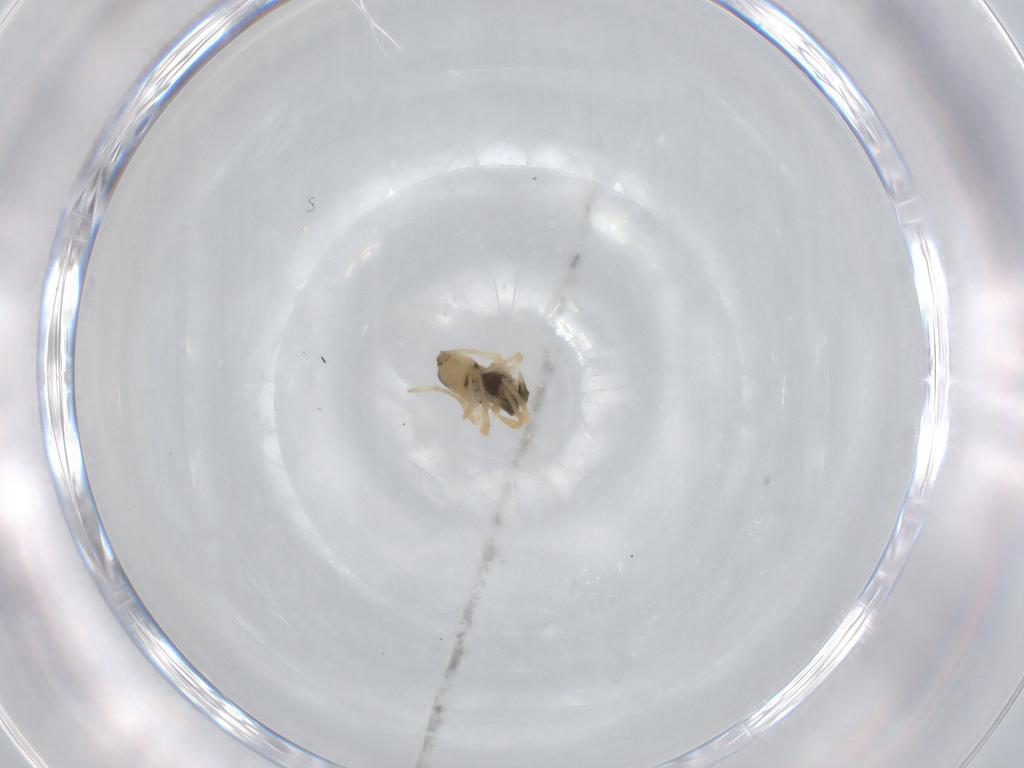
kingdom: Animalia
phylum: Arthropoda
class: Arachnida
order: Araneae
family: Theridiidae
